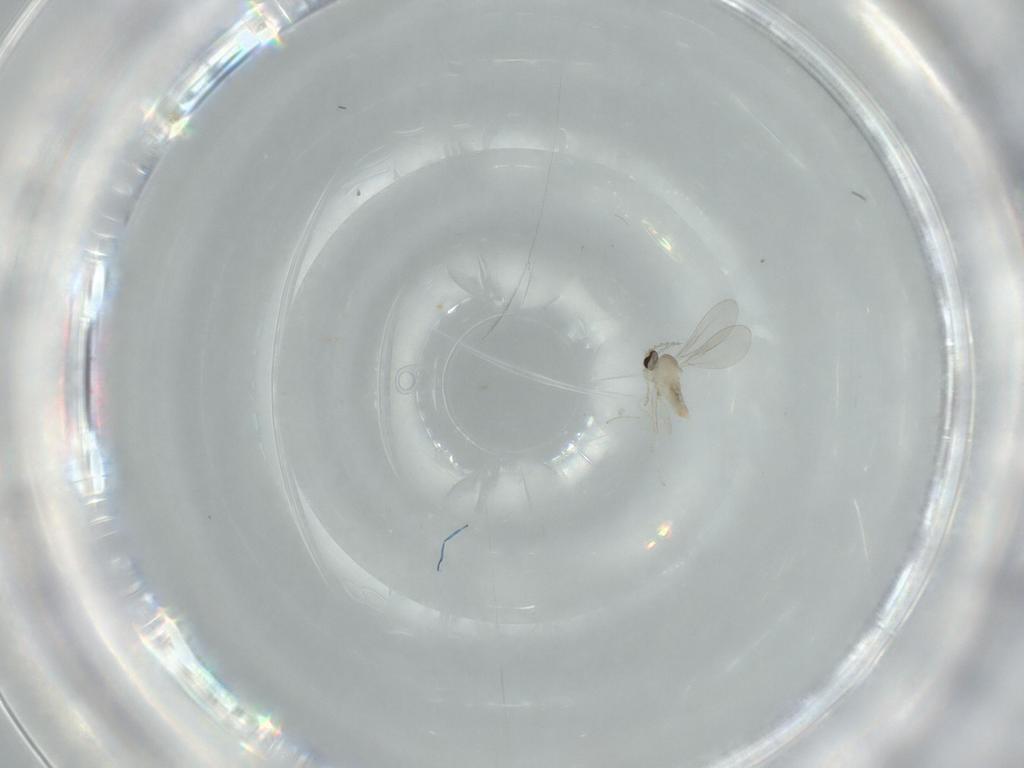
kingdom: Animalia
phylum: Arthropoda
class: Insecta
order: Diptera
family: Cecidomyiidae
